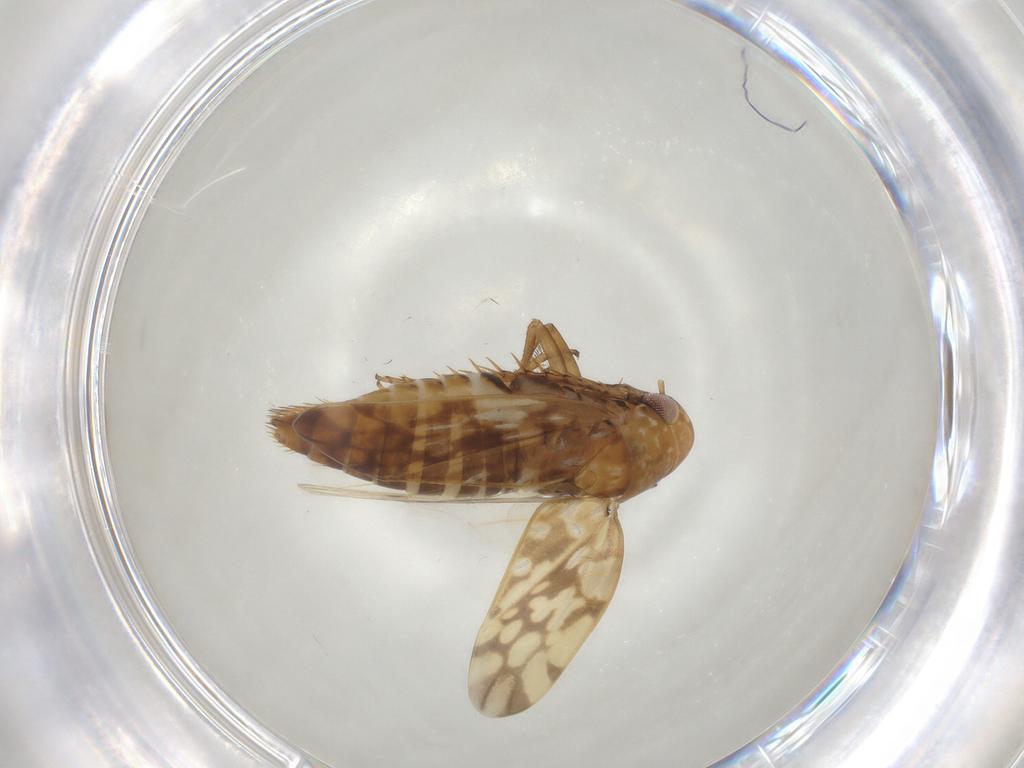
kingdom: Animalia
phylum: Arthropoda
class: Insecta
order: Hemiptera
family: Cicadellidae
